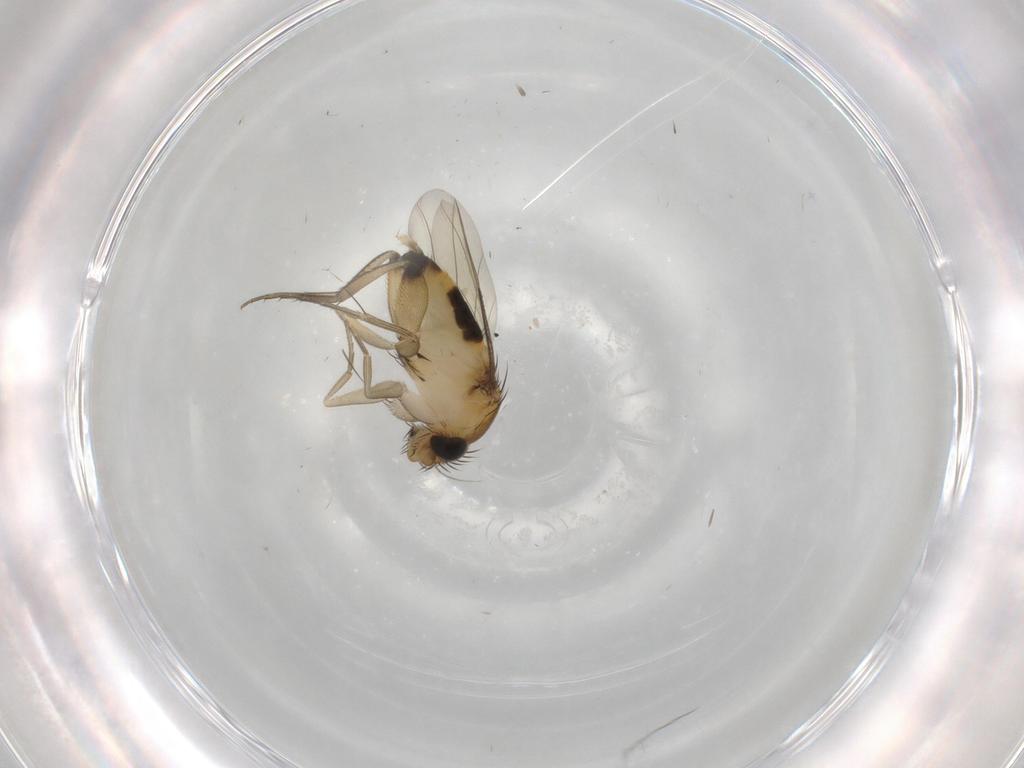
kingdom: Animalia
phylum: Arthropoda
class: Insecta
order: Diptera
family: Phoridae
